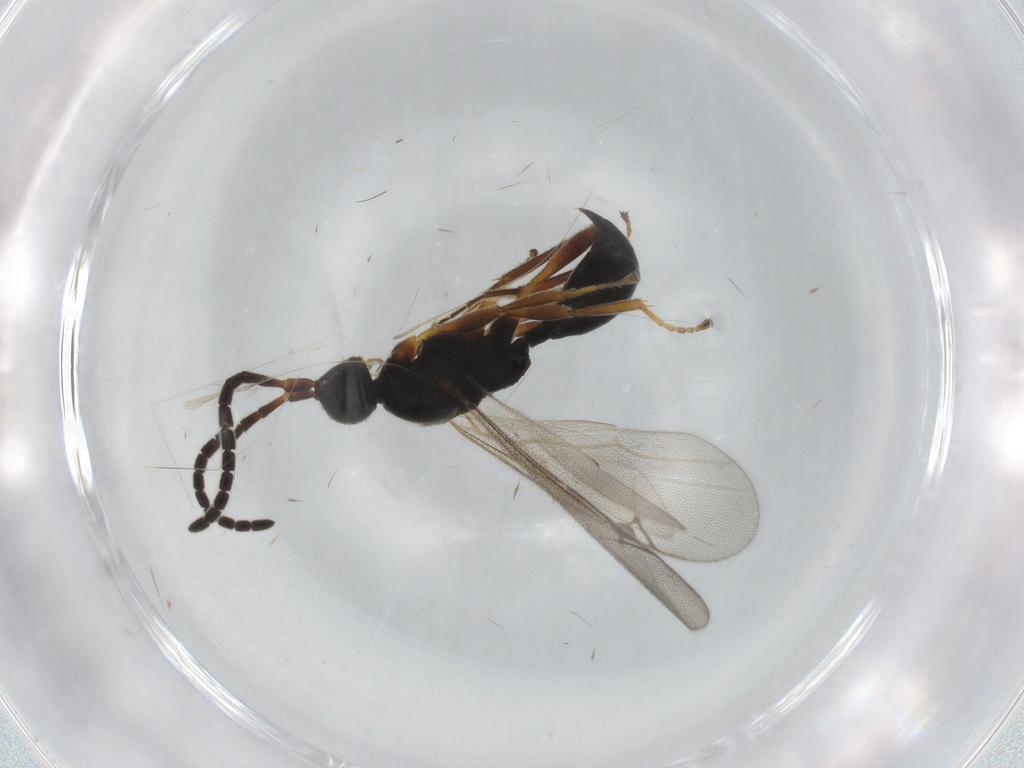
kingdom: Animalia
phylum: Arthropoda
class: Insecta
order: Hymenoptera
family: Proctotrupidae
